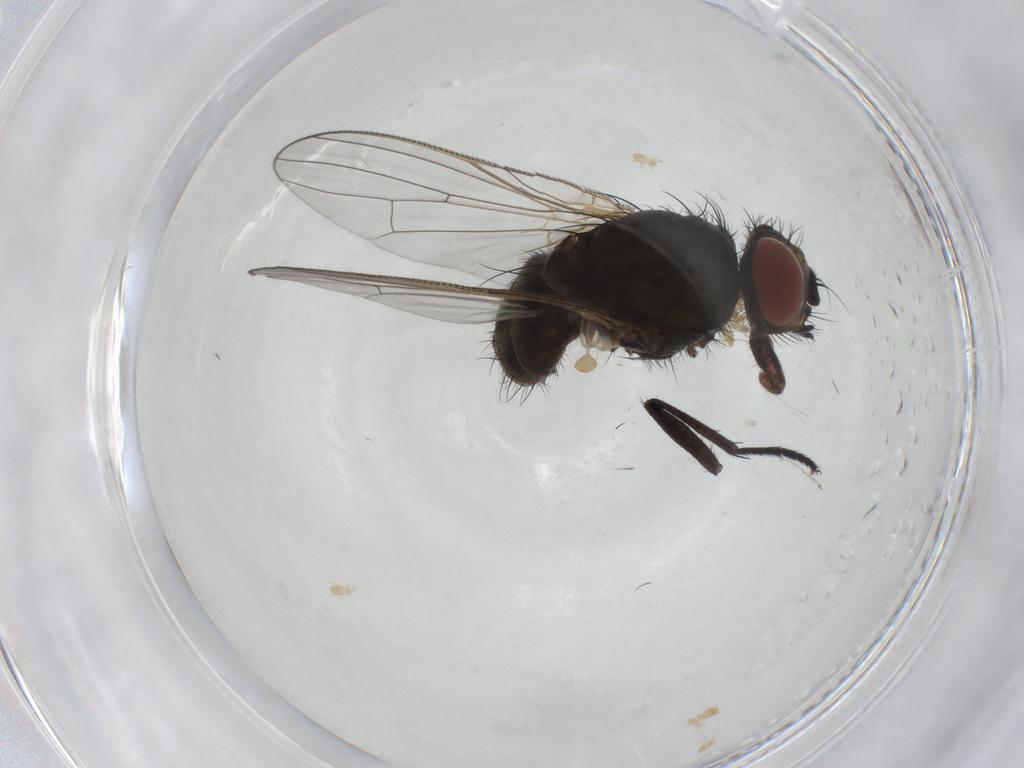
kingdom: Animalia
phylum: Arthropoda
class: Insecta
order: Diptera
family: Anthomyiidae
